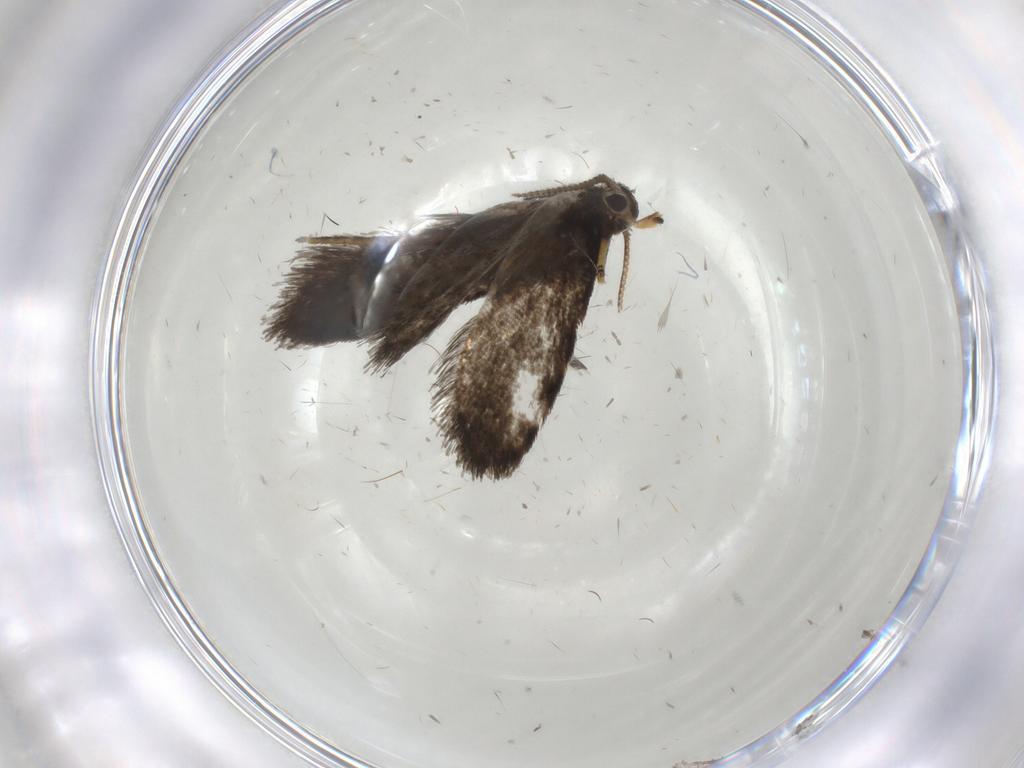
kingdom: Animalia
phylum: Arthropoda
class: Insecta
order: Lepidoptera
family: Psychidae
